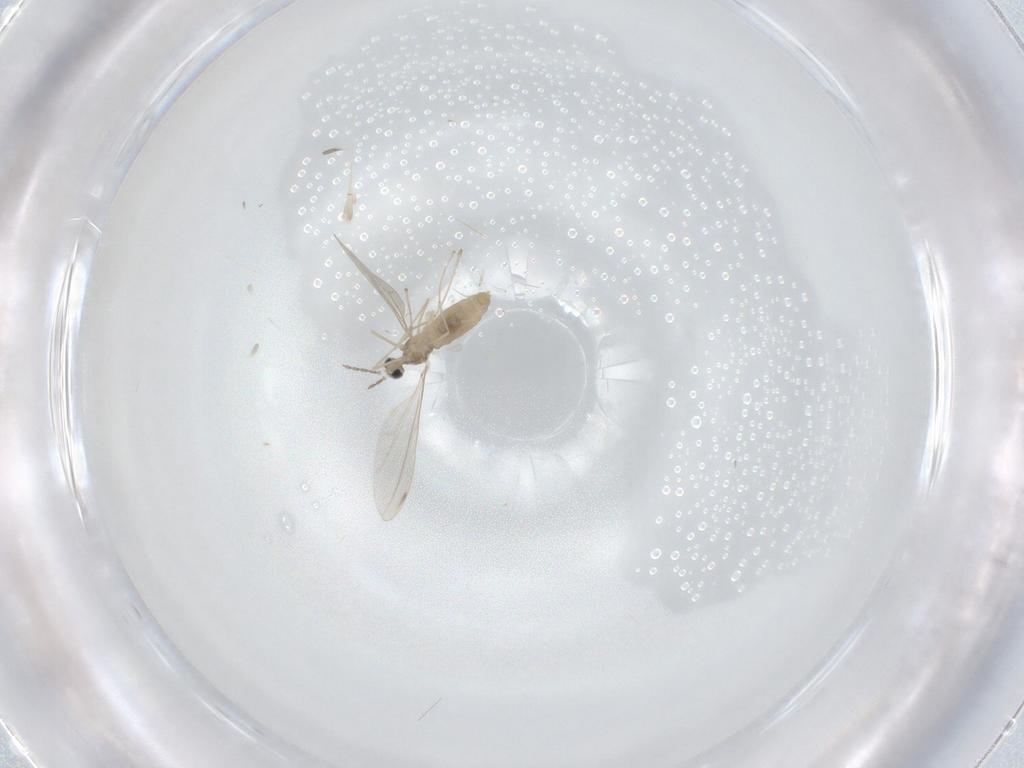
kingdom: Animalia
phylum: Arthropoda
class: Insecta
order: Diptera
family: Cecidomyiidae
